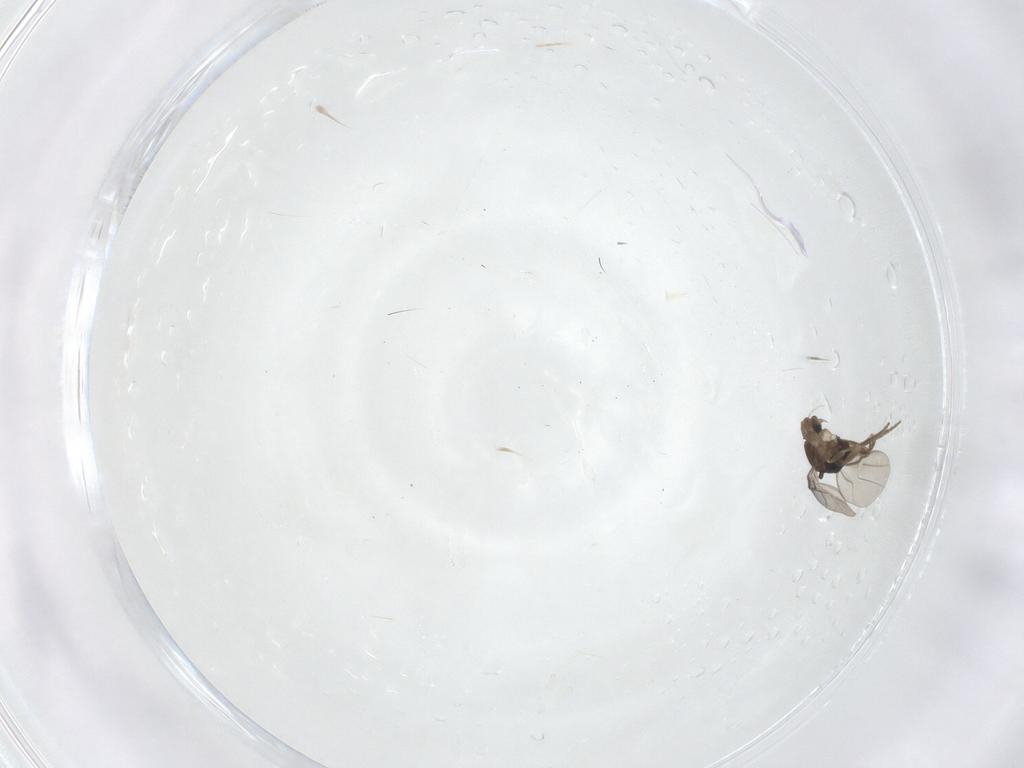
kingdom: Animalia
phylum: Arthropoda
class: Insecta
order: Diptera
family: Phoridae
